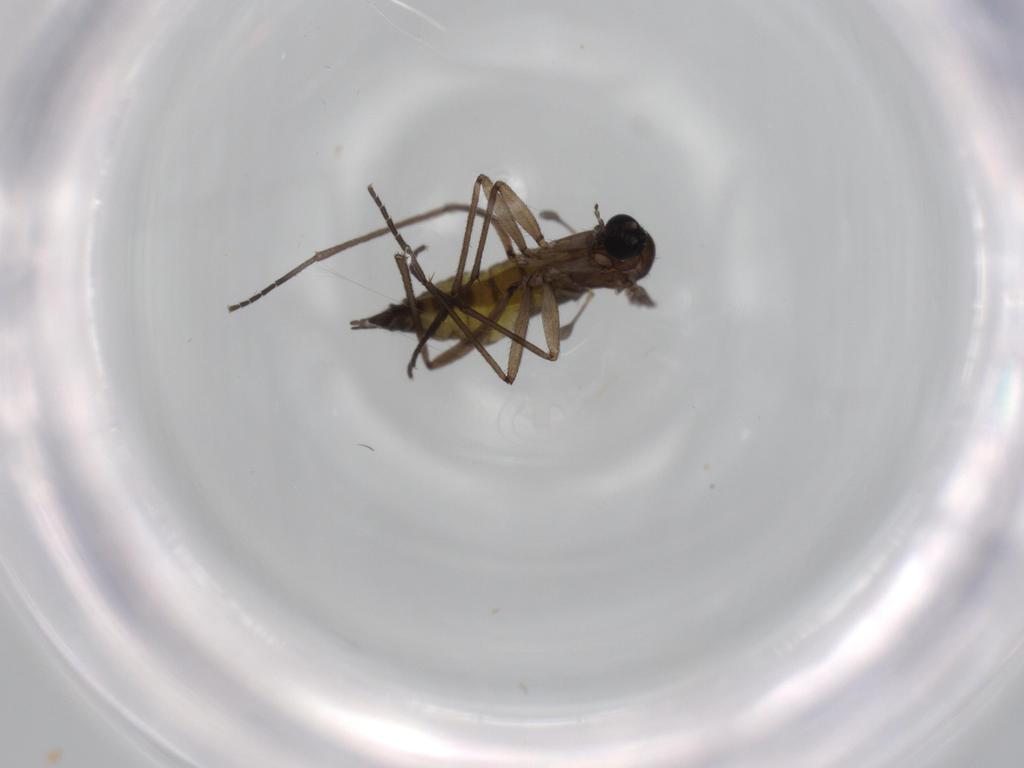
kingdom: Animalia
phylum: Arthropoda
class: Insecta
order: Diptera
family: Sciaridae
